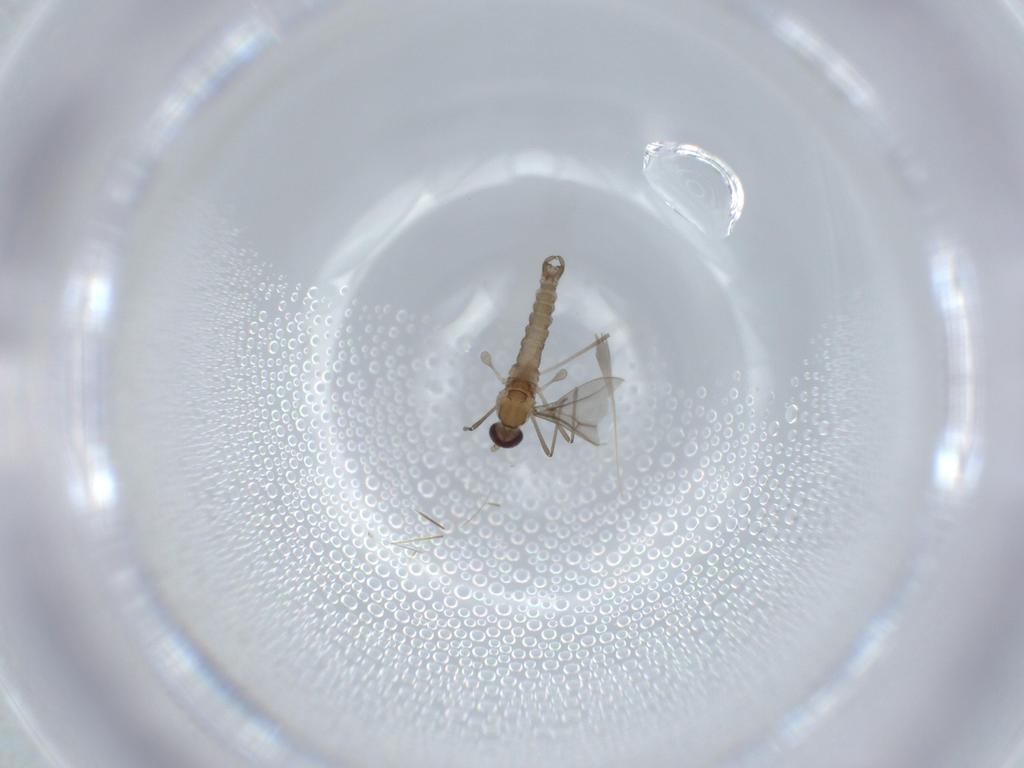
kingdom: Animalia
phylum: Arthropoda
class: Insecta
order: Diptera
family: Cecidomyiidae
